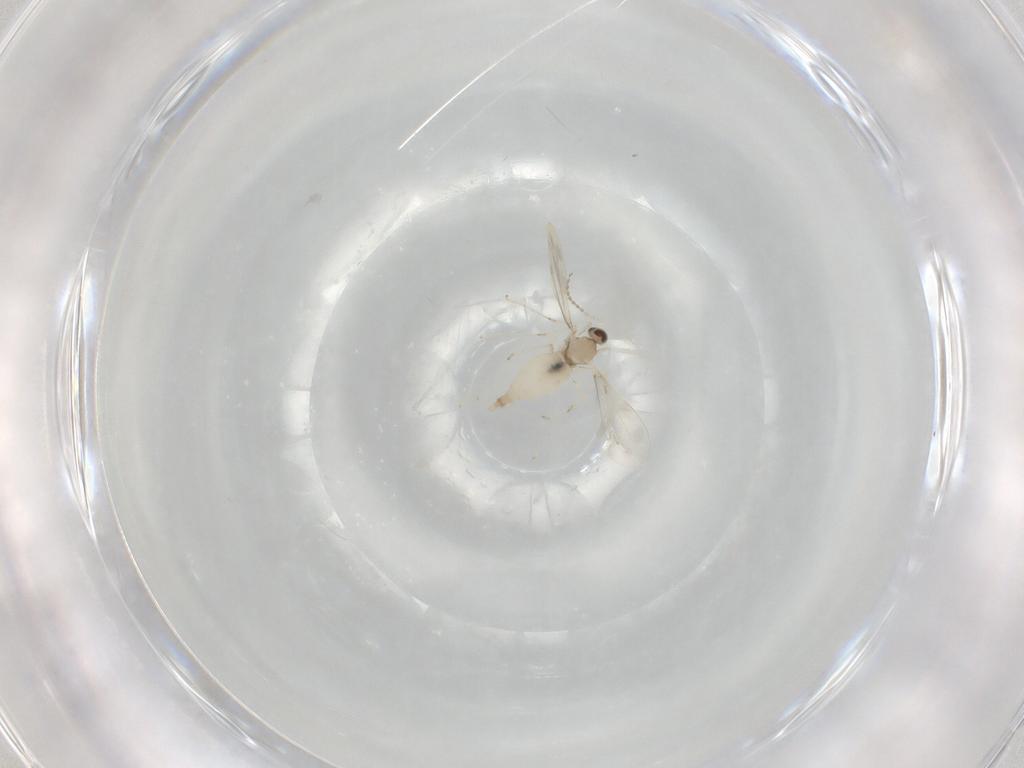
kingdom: Animalia
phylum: Arthropoda
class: Insecta
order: Diptera
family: Cecidomyiidae
